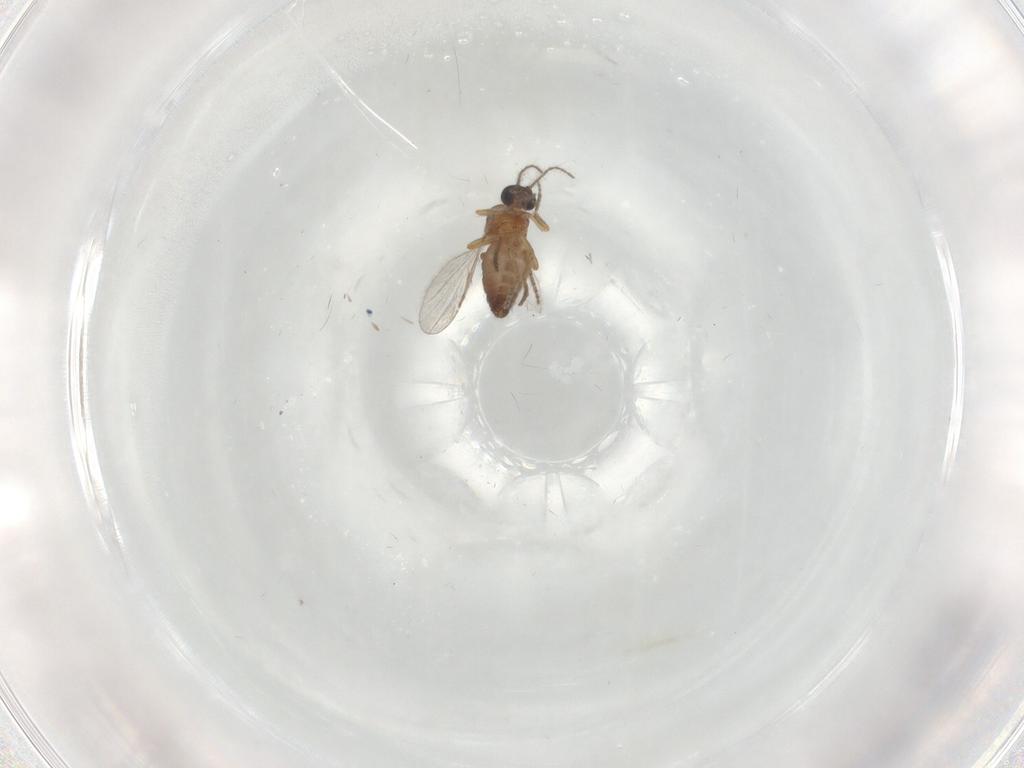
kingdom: Animalia
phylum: Arthropoda
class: Insecta
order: Diptera
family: Ceratopogonidae
